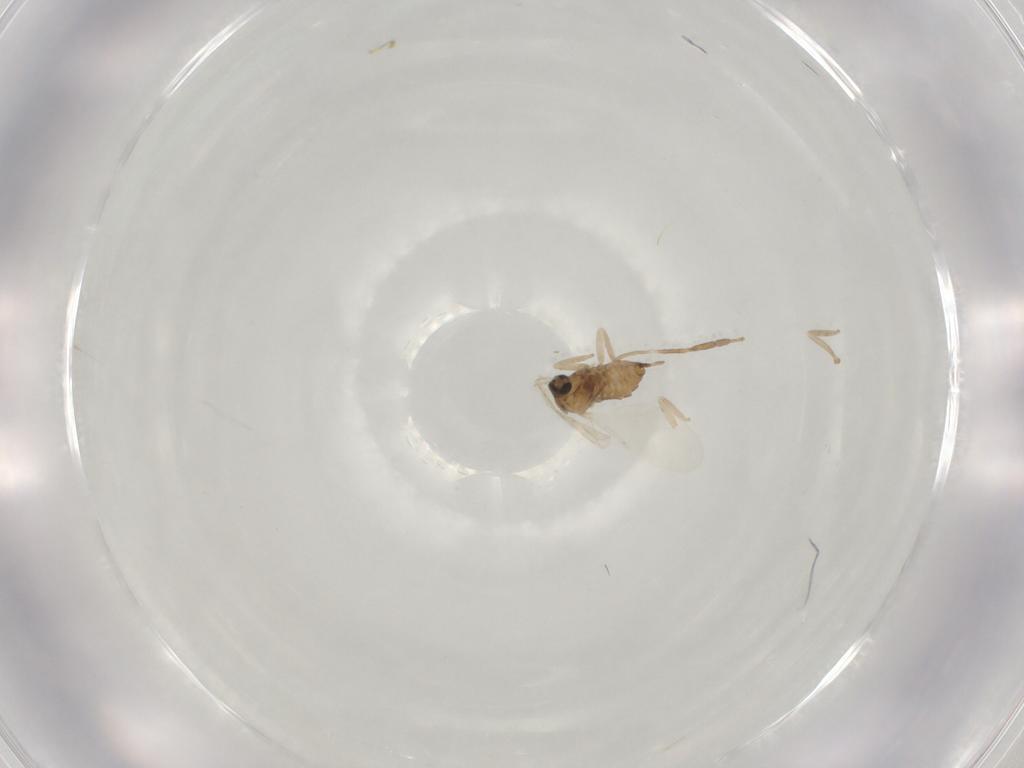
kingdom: Animalia
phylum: Arthropoda
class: Insecta
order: Diptera
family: Cecidomyiidae
